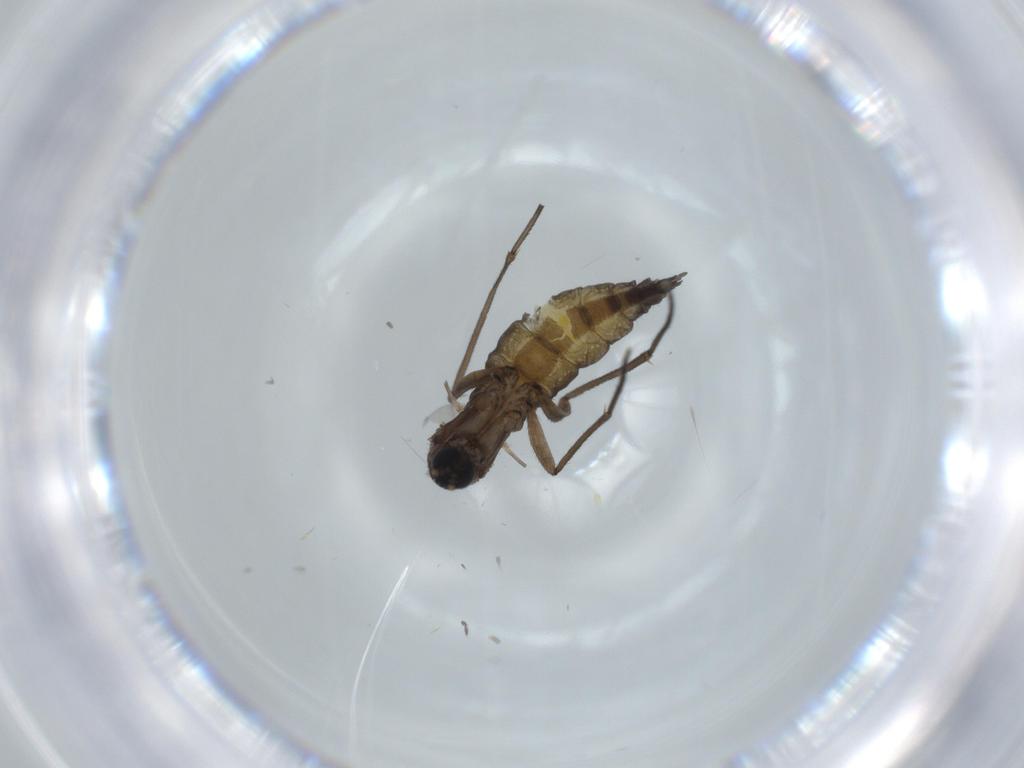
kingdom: Animalia
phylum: Arthropoda
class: Insecta
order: Diptera
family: Sciaridae
